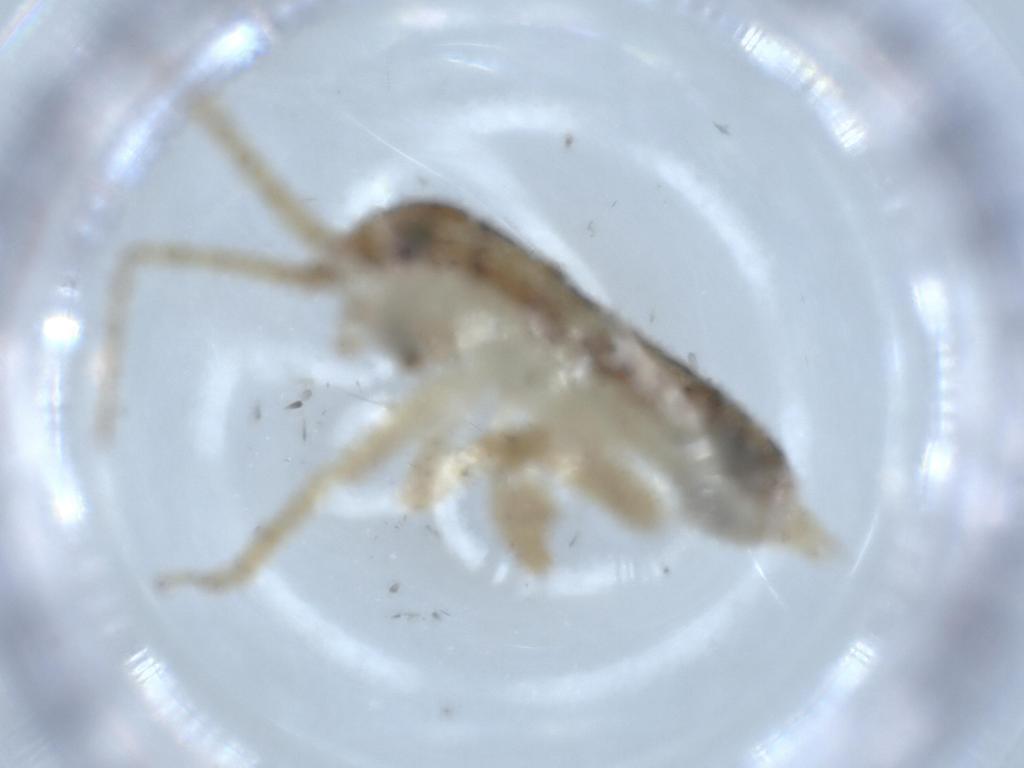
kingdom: Animalia
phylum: Arthropoda
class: Insecta
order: Orthoptera
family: Gryllidae
